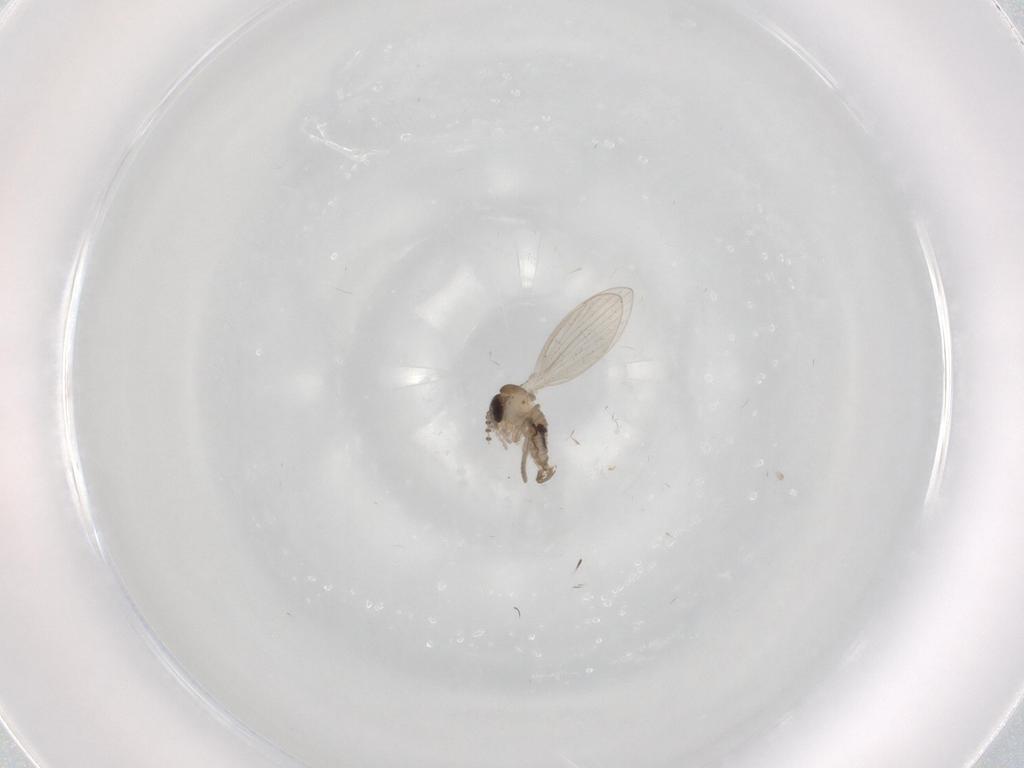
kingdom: Animalia
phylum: Arthropoda
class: Insecta
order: Diptera
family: Psychodidae
